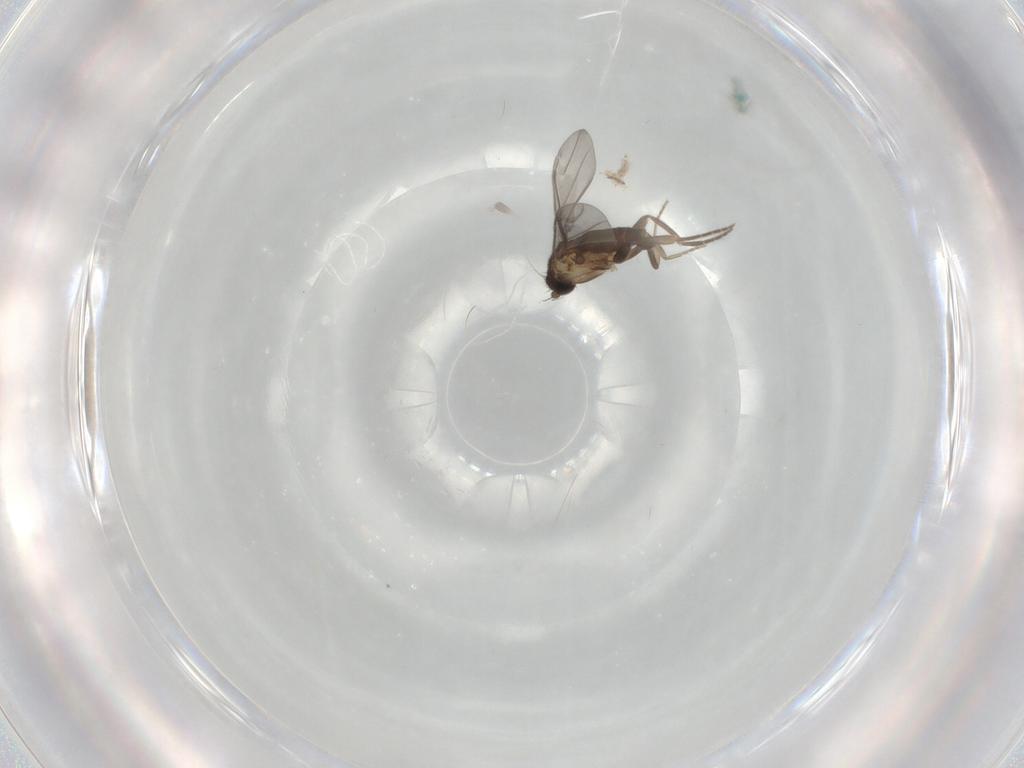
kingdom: Animalia
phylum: Arthropoda
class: Insecta
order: Diptera
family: Phoridae
